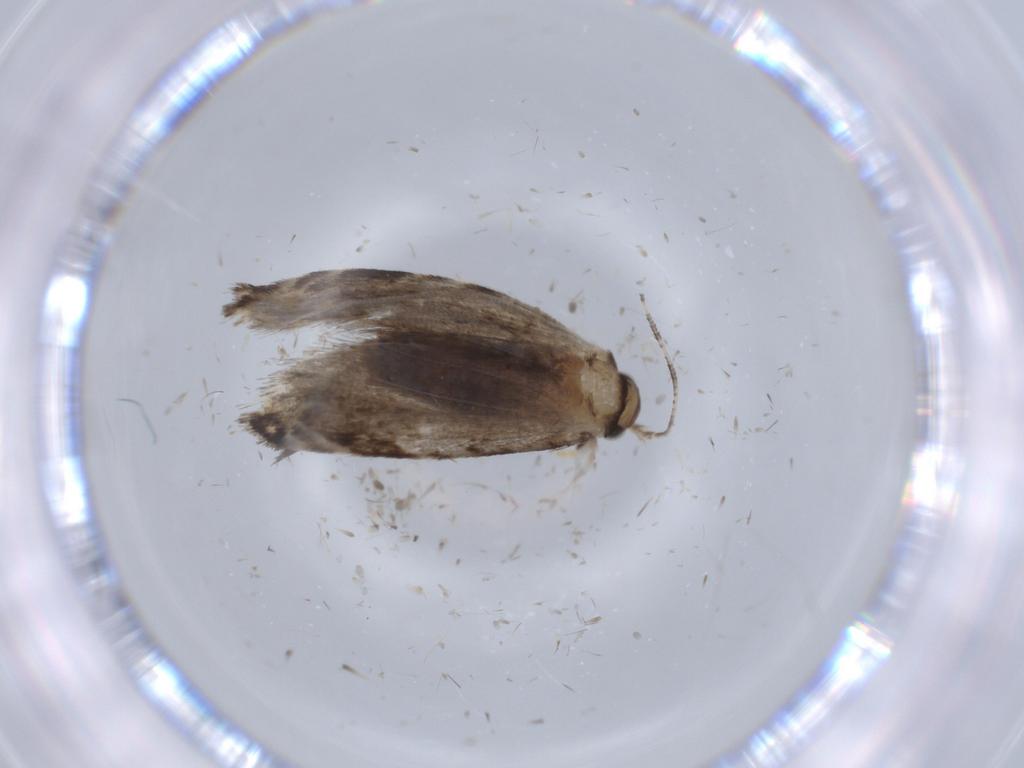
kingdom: Animalia
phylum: Arthropoda
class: Insecta
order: Lepidoptera
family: Tineidae
